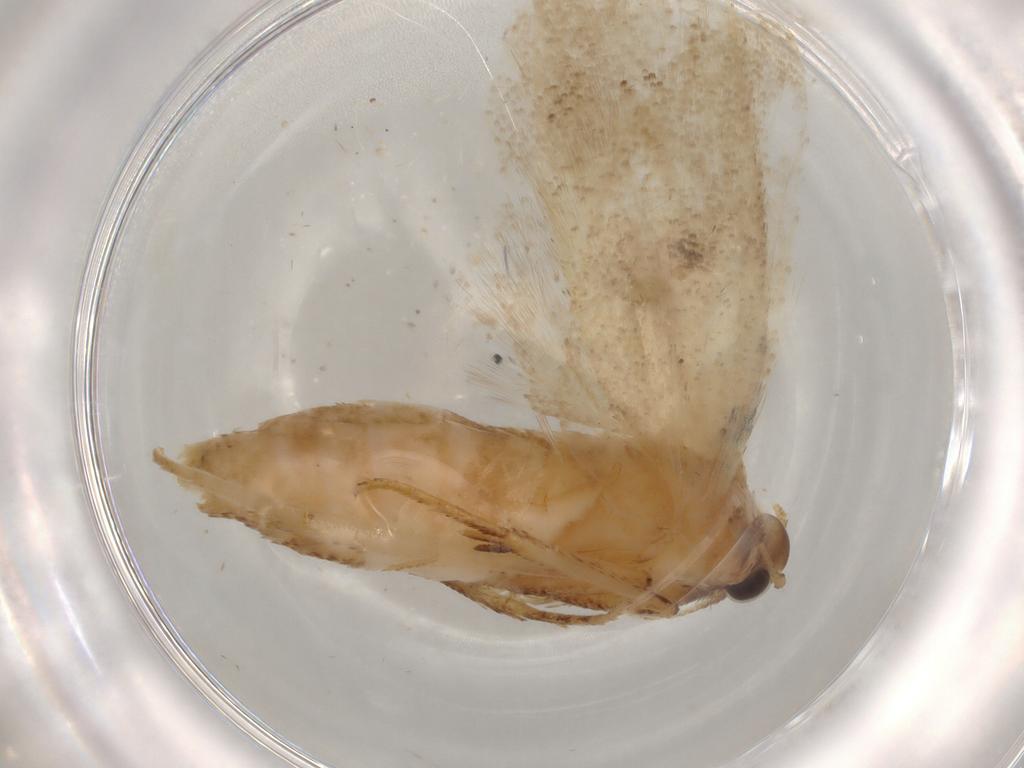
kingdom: Animalia
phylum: Arthropoda
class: Insecta
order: Lepidoptera
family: Autostichidae
